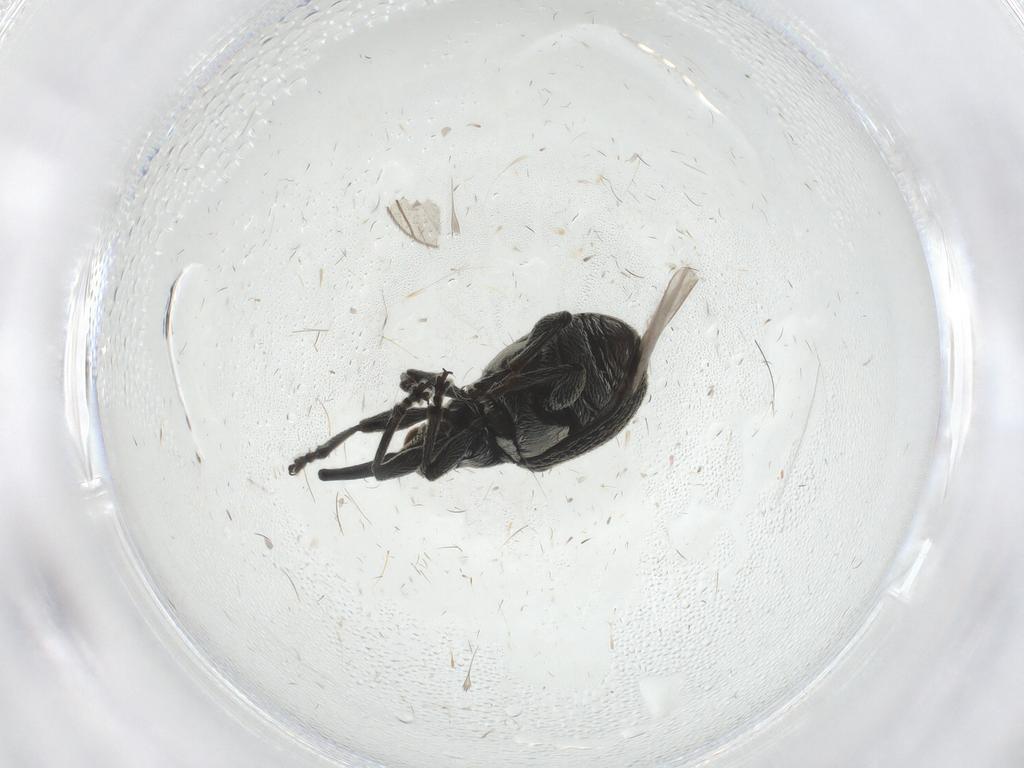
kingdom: Animalia
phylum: Arthropoda
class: Insecta
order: Coleoptera
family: Brentidae
